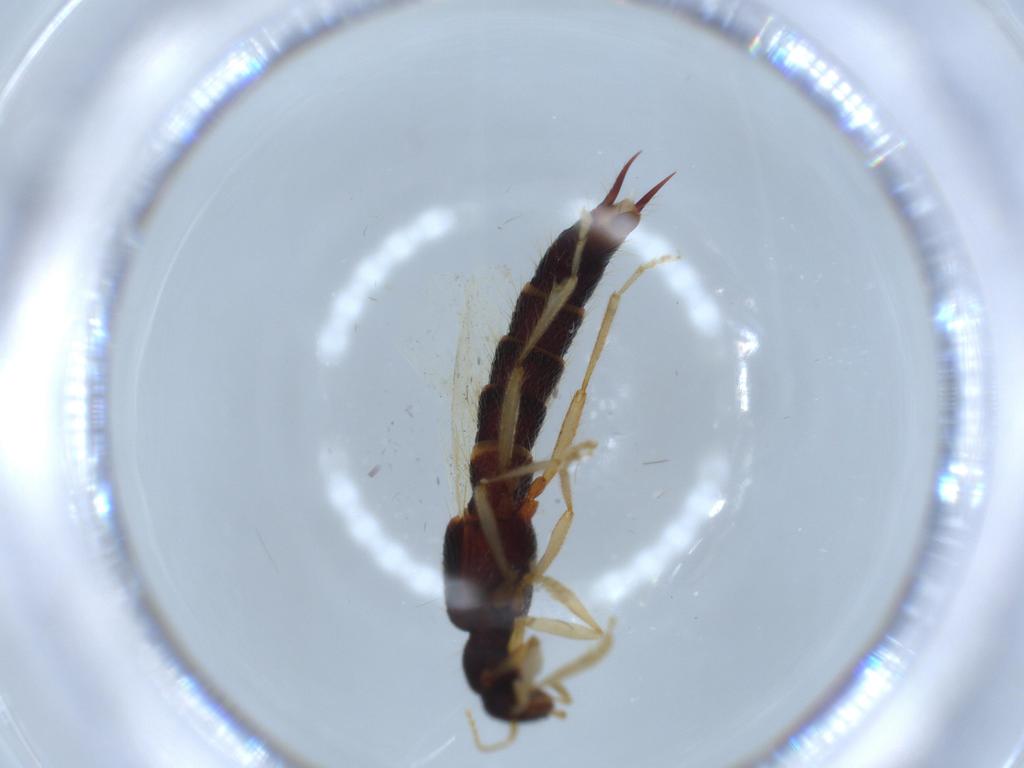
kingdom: Animalia
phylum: Arthropoda
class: Insecta
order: Coleoptera
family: Staphylinidae
